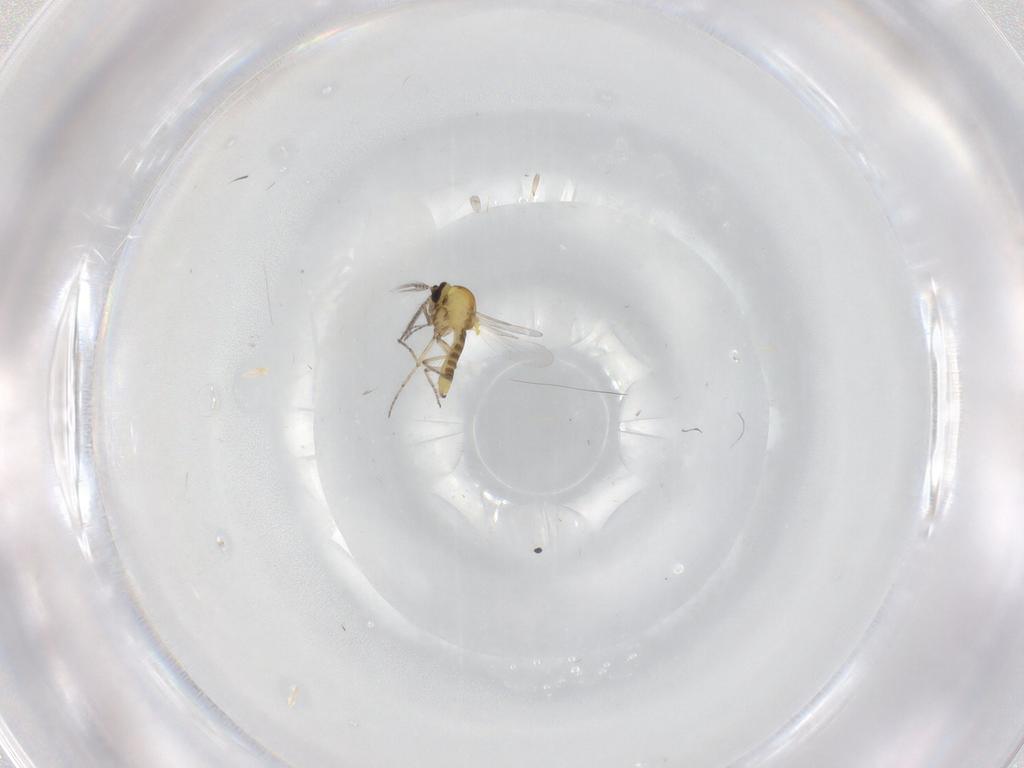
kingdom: Animalia
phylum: Arthropoda
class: Insecta
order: Diptera
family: Cecidomyiidae
